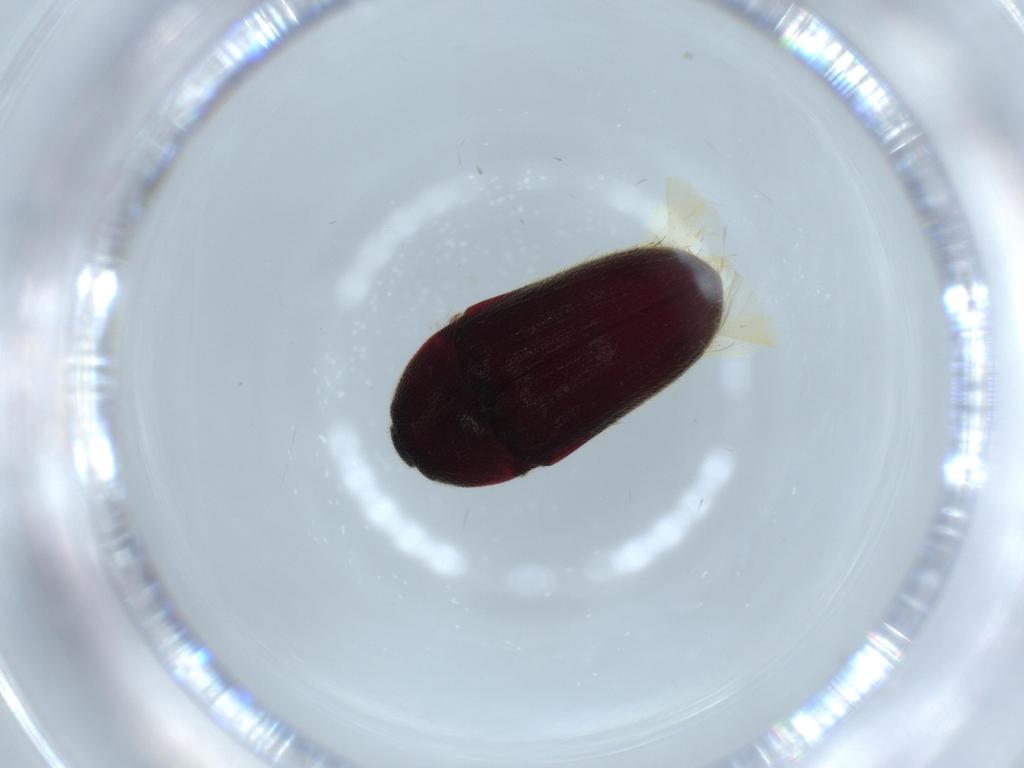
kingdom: Animalia
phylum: Arthropoda
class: Insecta
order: Coleoptera
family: Throscidae
